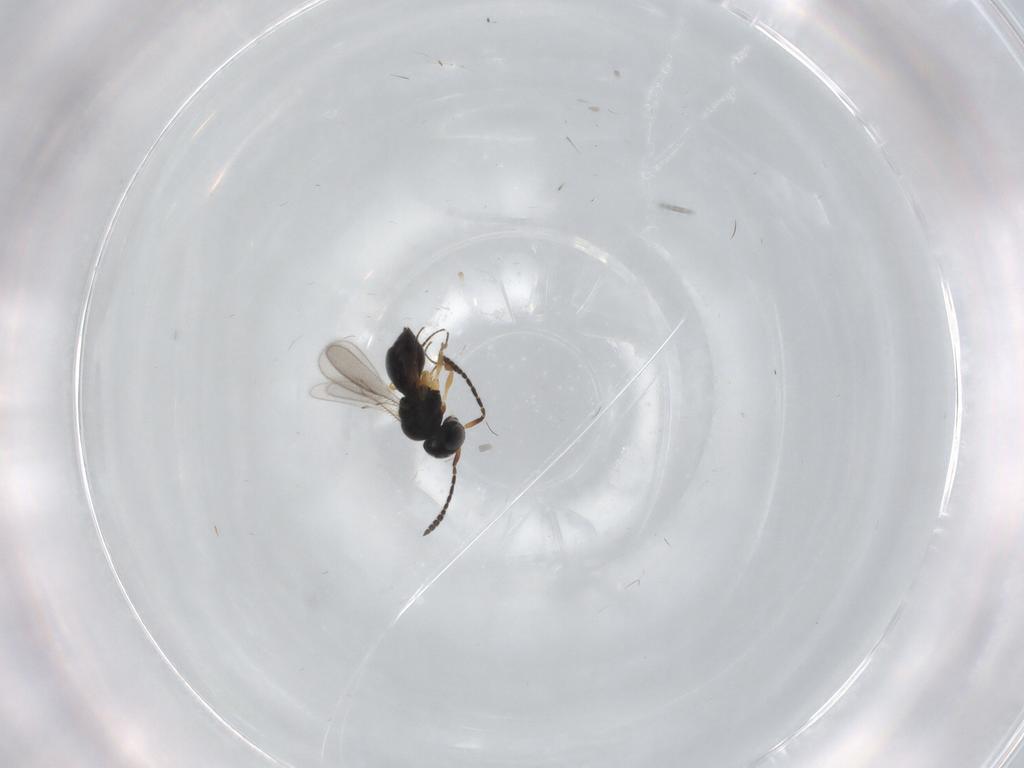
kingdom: Animalia
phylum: Arthropoda
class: Insecta
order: Hymenoptera
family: Scelionidae
